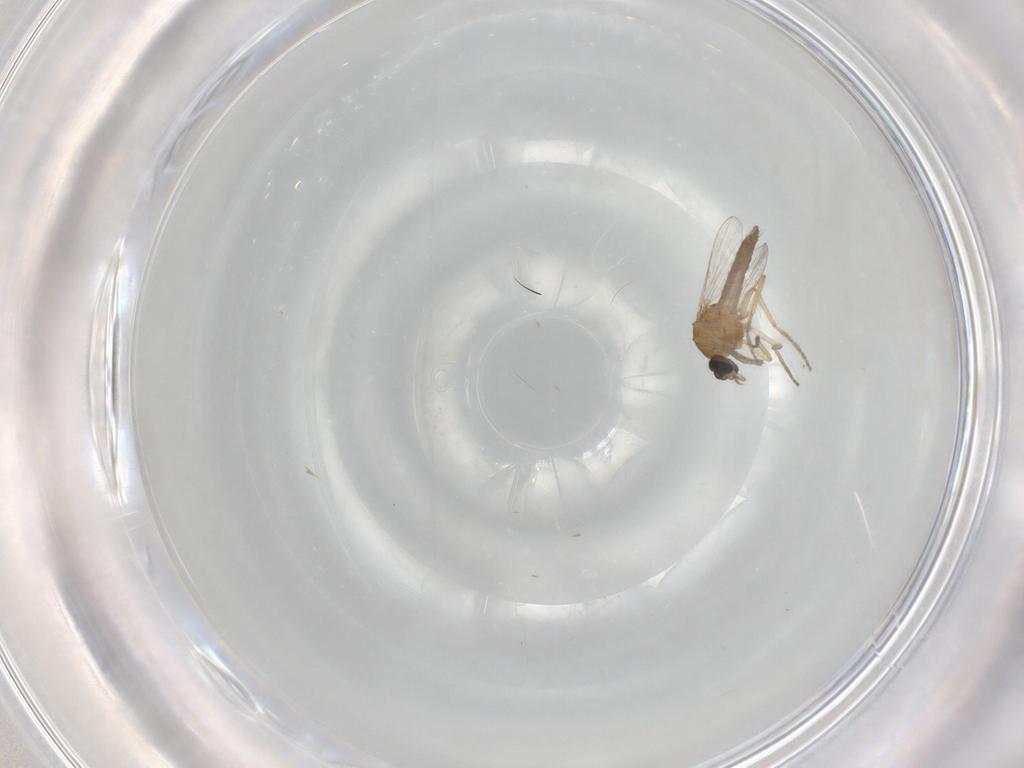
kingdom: Animalia
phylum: Arthropoda
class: Insecta
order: Diptera
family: Ceratopogonidae
